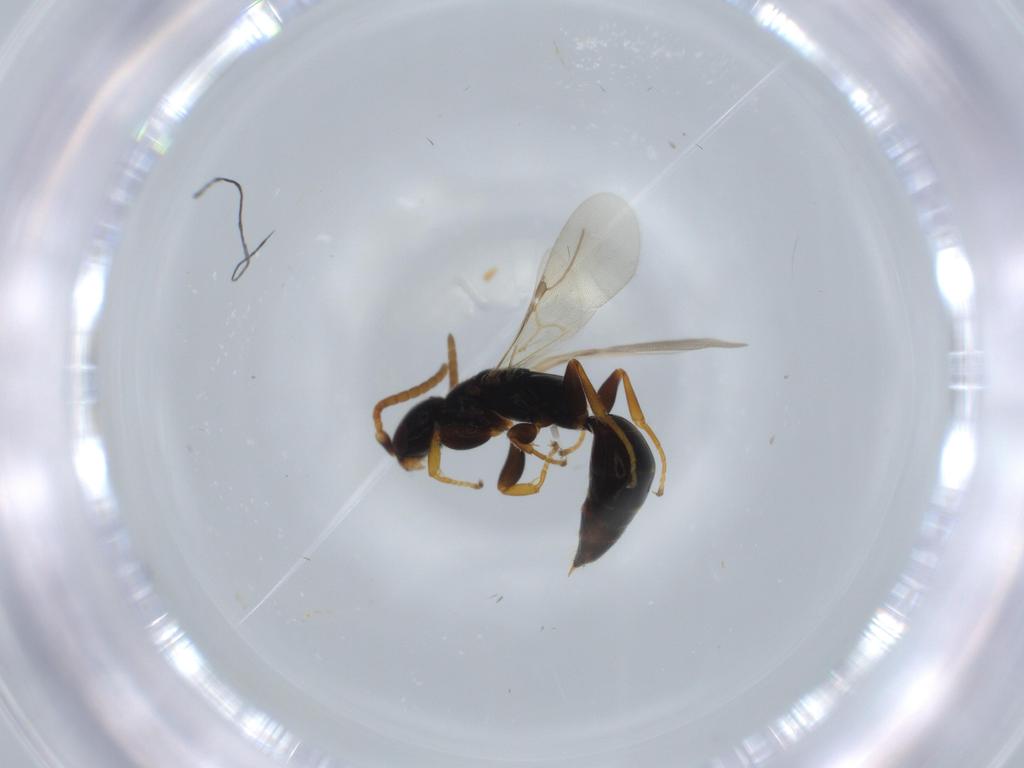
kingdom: Animalia
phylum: Arthropoda
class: Insecta
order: Hymenoptera
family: Bethylidae
